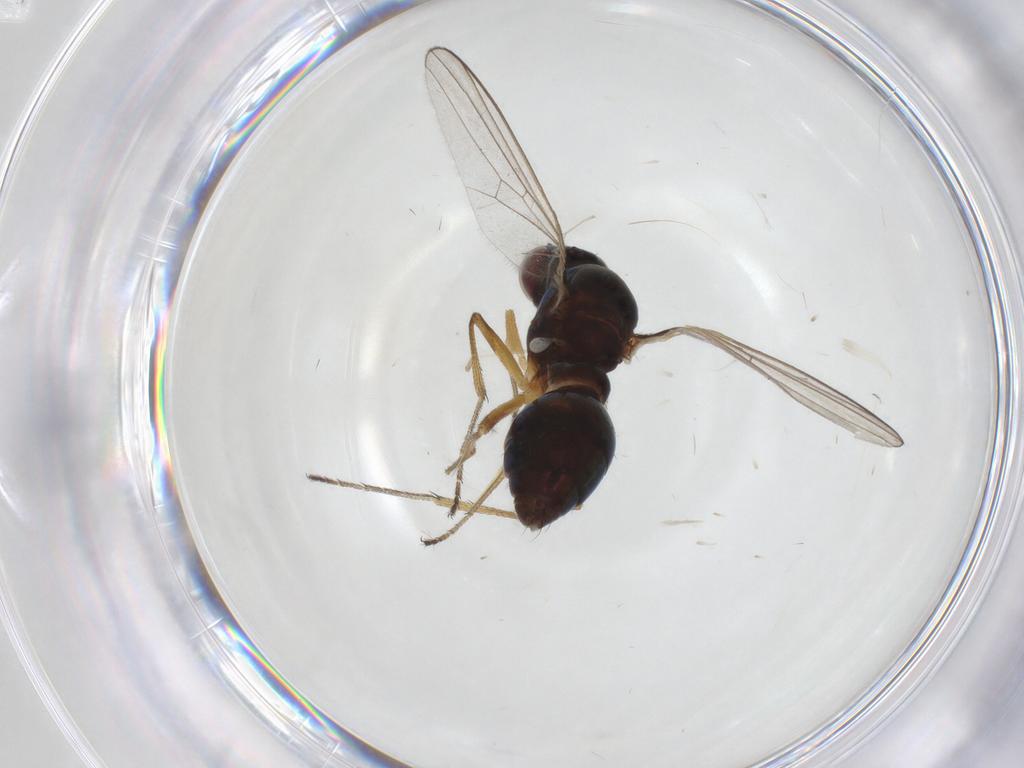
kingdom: Animalia
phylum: Arthropoda
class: Insecta
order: Diptera
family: Sepsidae
